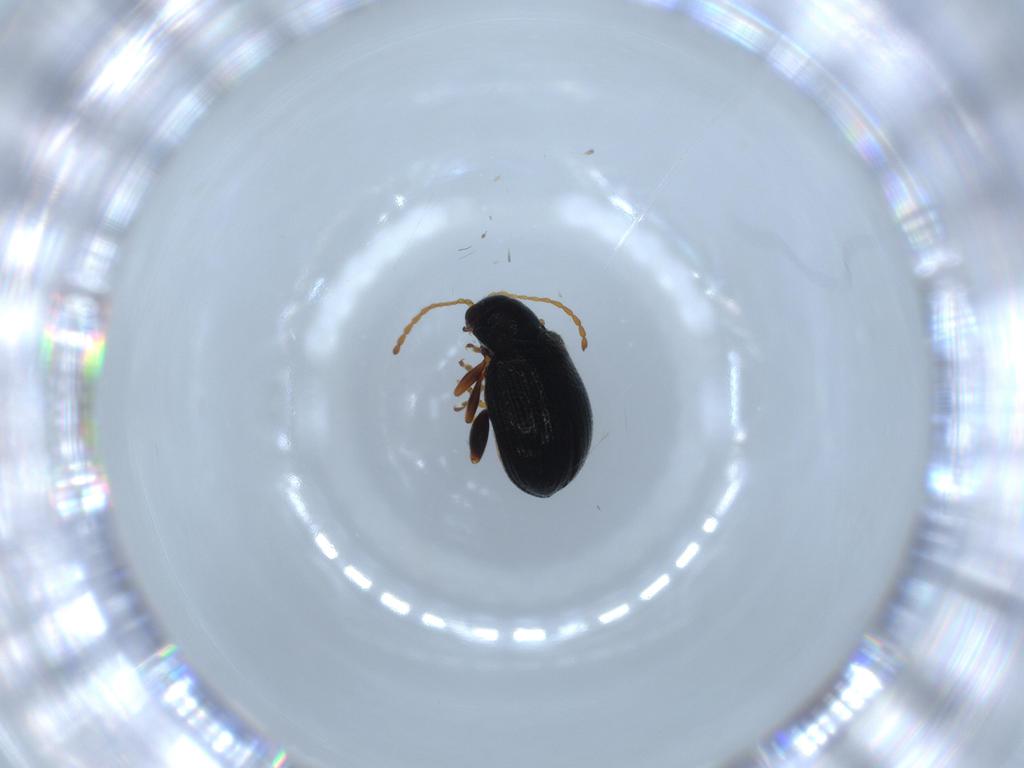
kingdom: Animalia
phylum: Arthropoda
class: Insecta
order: Coleoptera
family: Chrysomelidae
